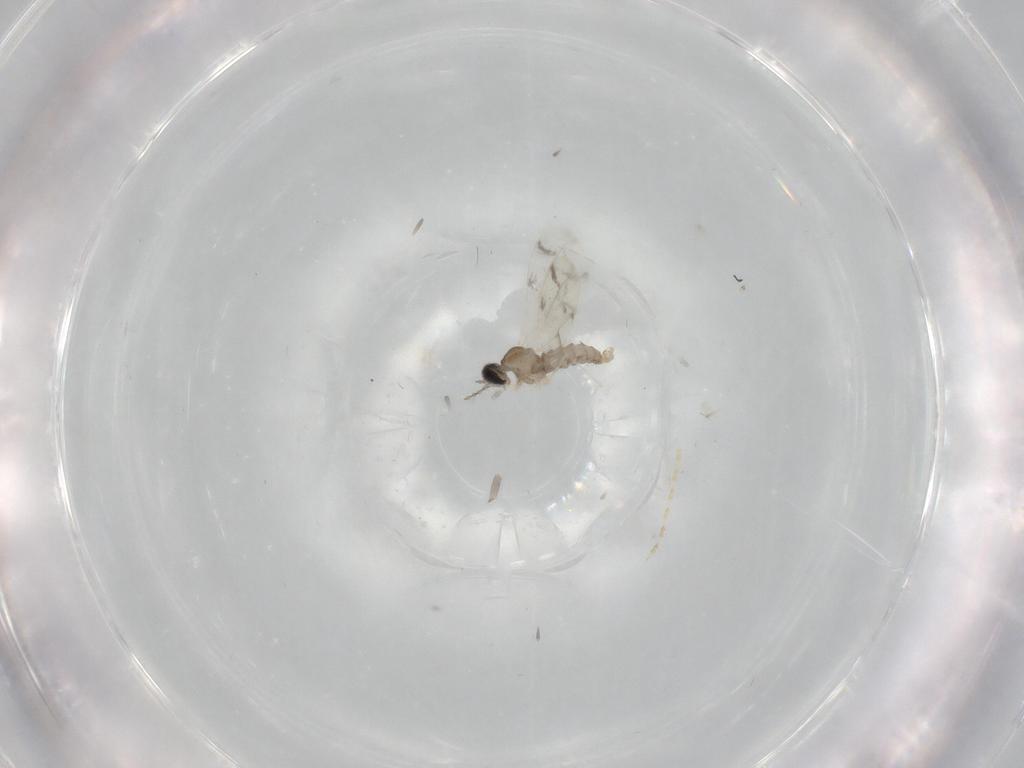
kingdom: Animalia
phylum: Arthropoda
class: Insecta
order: Diptera
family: Cecidomyiidae
